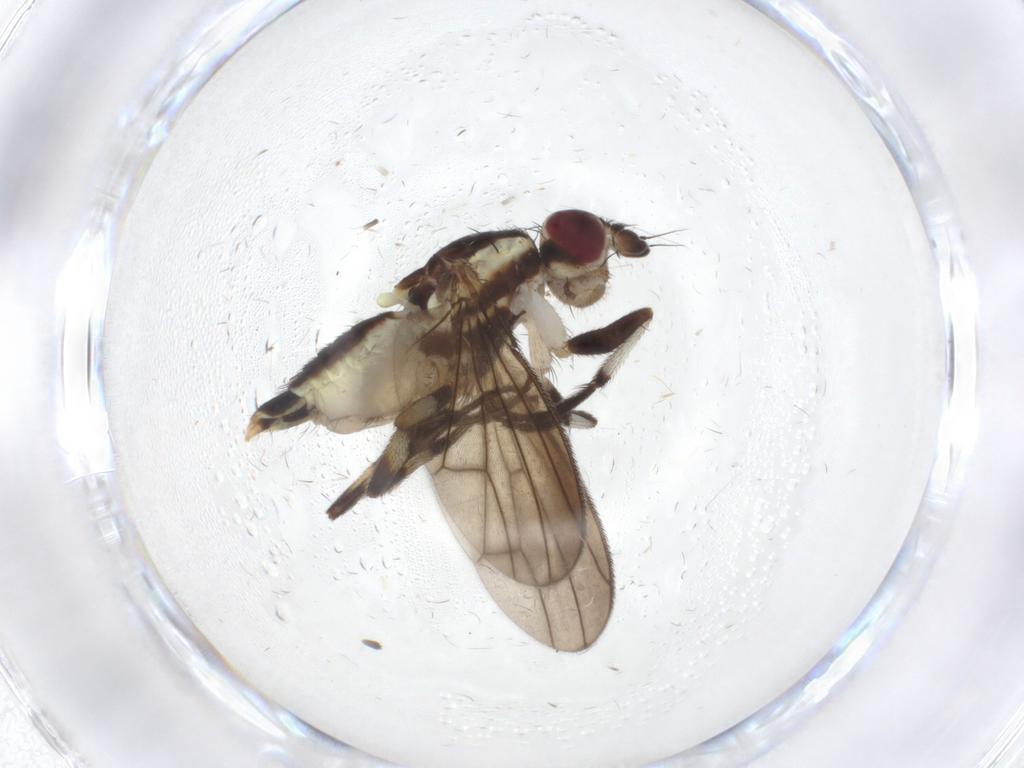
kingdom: Animalia
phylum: Arthropoda
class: Insecta
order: Diptera
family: Pseudopomyzidae
